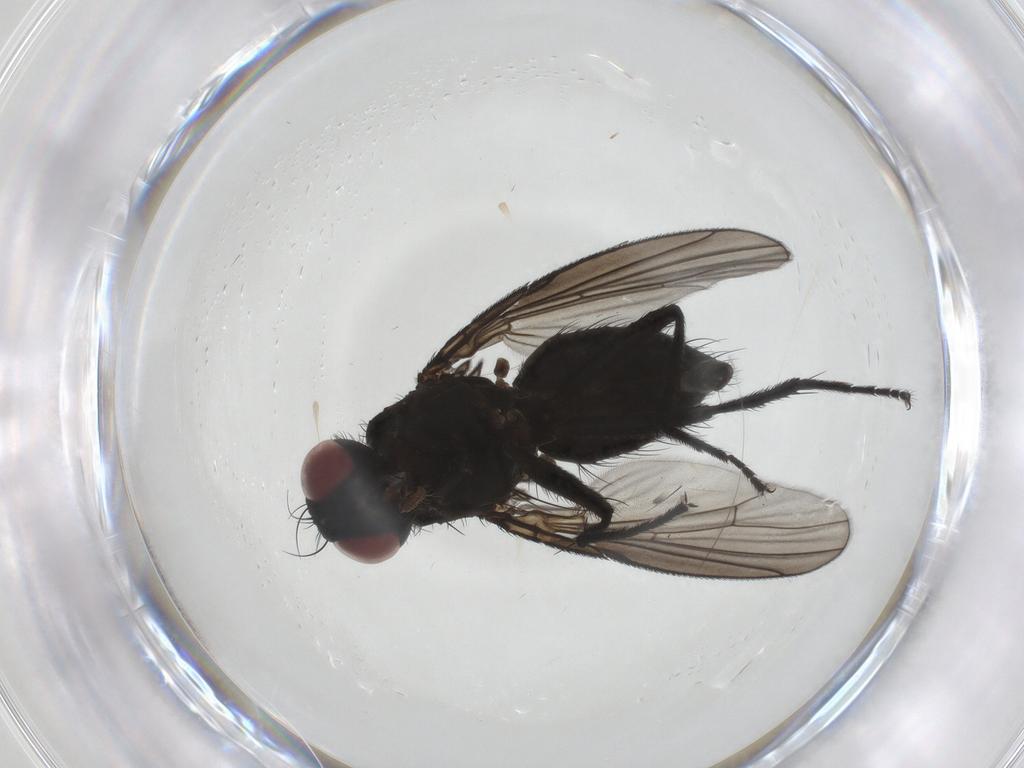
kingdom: Animalia
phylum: Arthropoda
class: Insecta
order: Diptera
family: Muscidae
